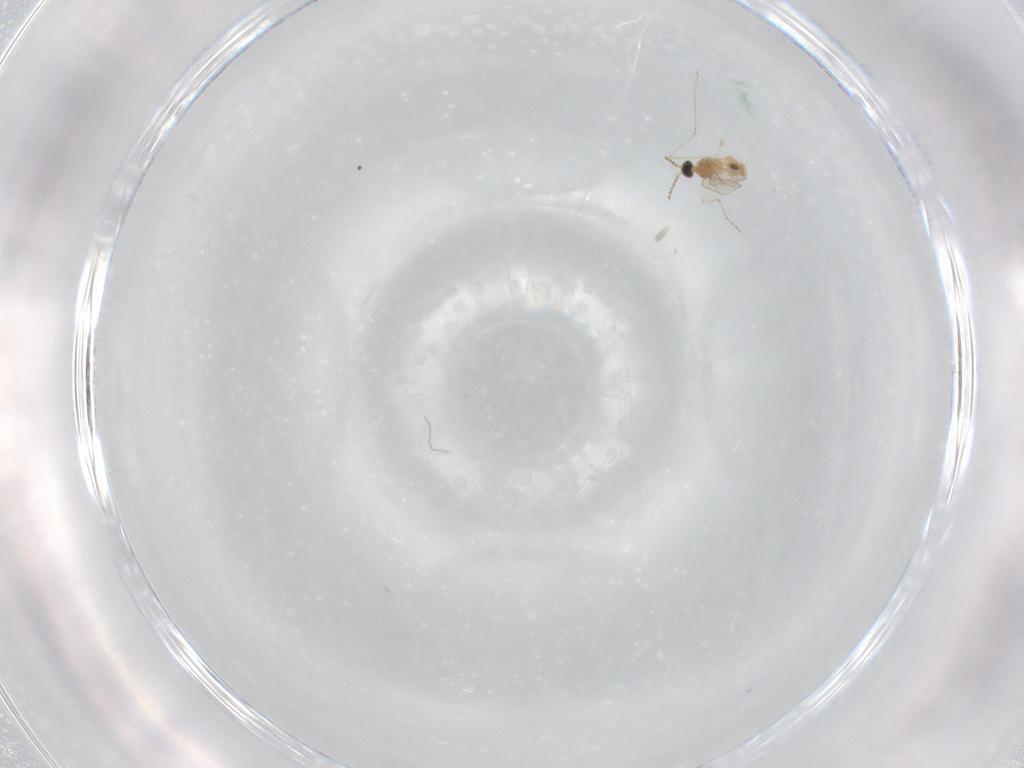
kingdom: Animalia
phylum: Arthropoda
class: Insecta
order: Diptera
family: Cecidomyiidae
